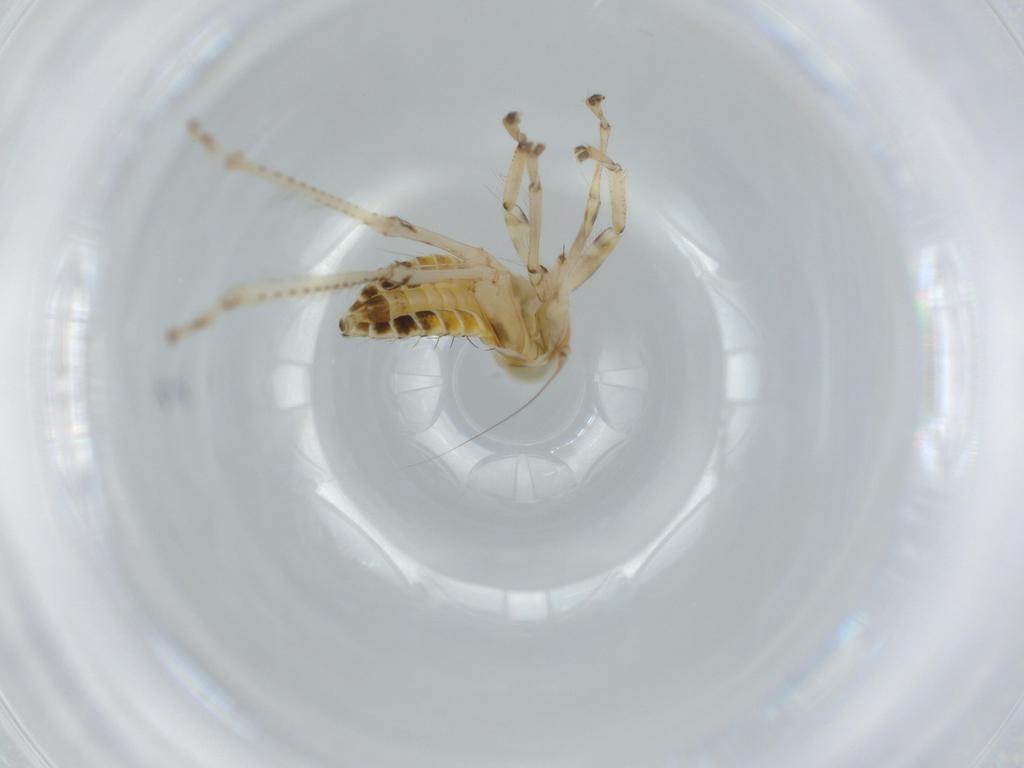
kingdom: Animalia
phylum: Arthropoda
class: Insecta
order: Hemiptera
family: Cicadellidae
